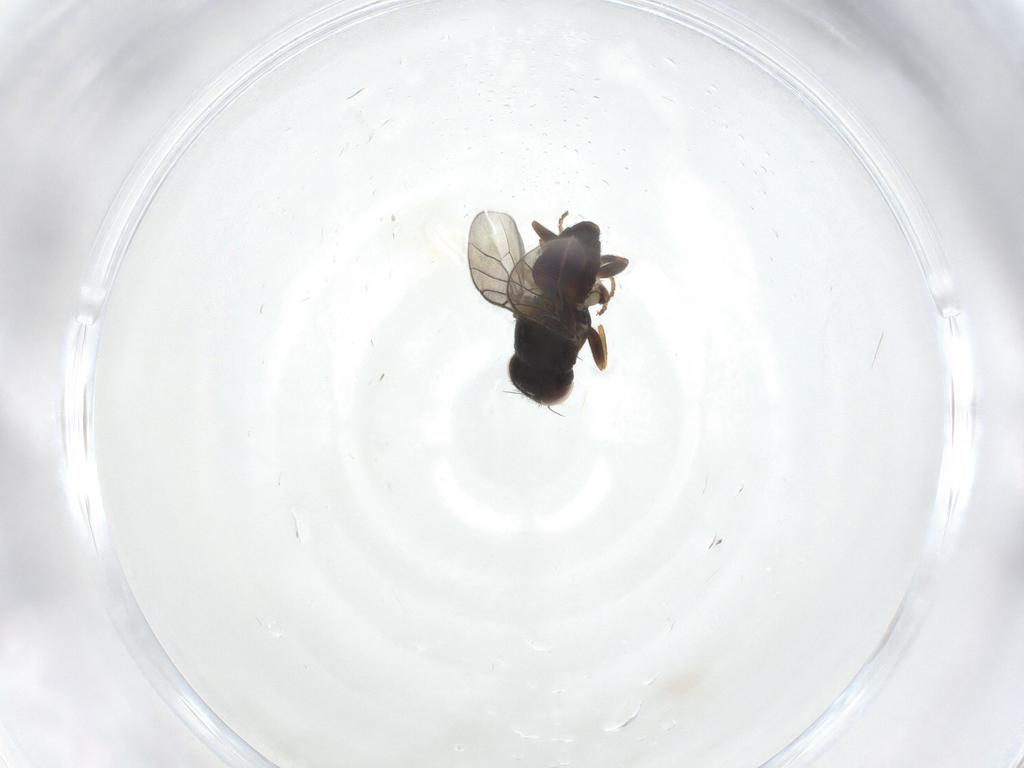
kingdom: Animalia
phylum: Arthropoda
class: Insecta
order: Diptera
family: Chloropidae
